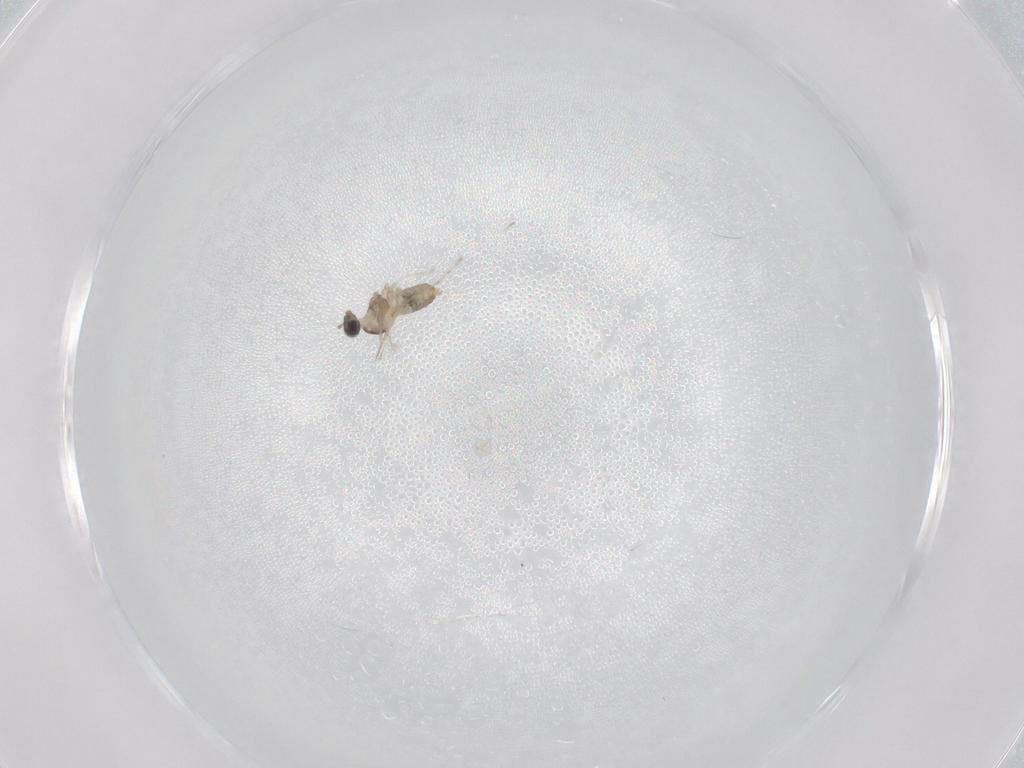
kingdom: Animalia
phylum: Arthropoda
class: Insecta
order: Diptera
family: Cecidomyiidae
